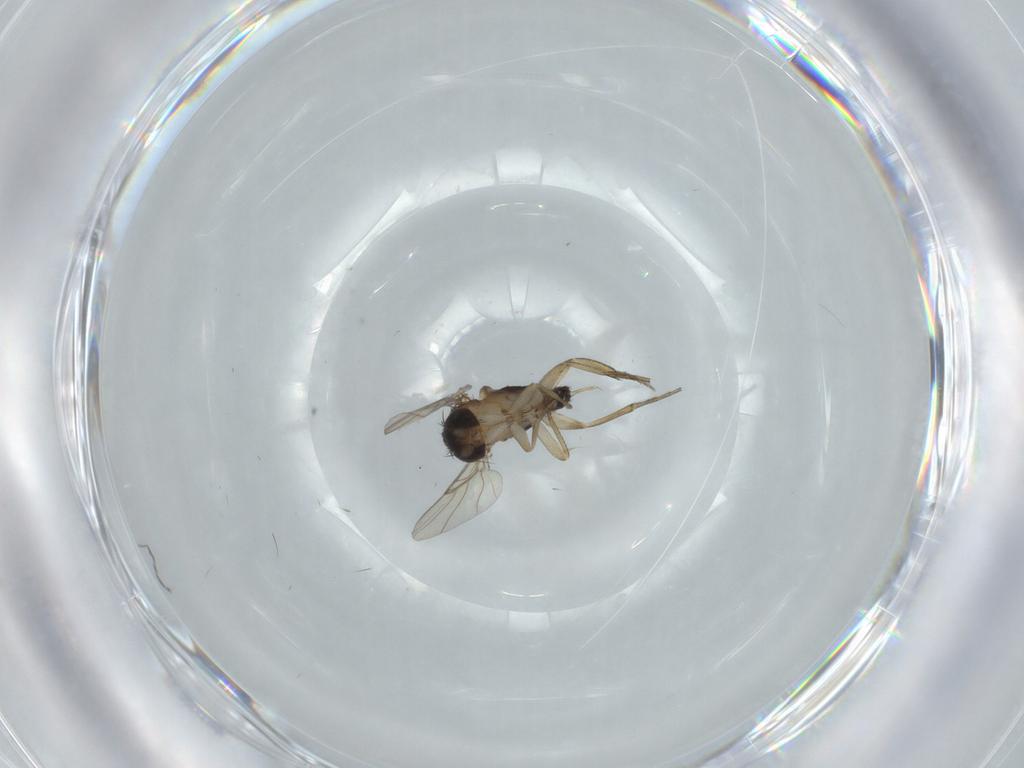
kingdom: Animalia
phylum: Arthropoda
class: Insecta
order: Diptera
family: Phoridae
